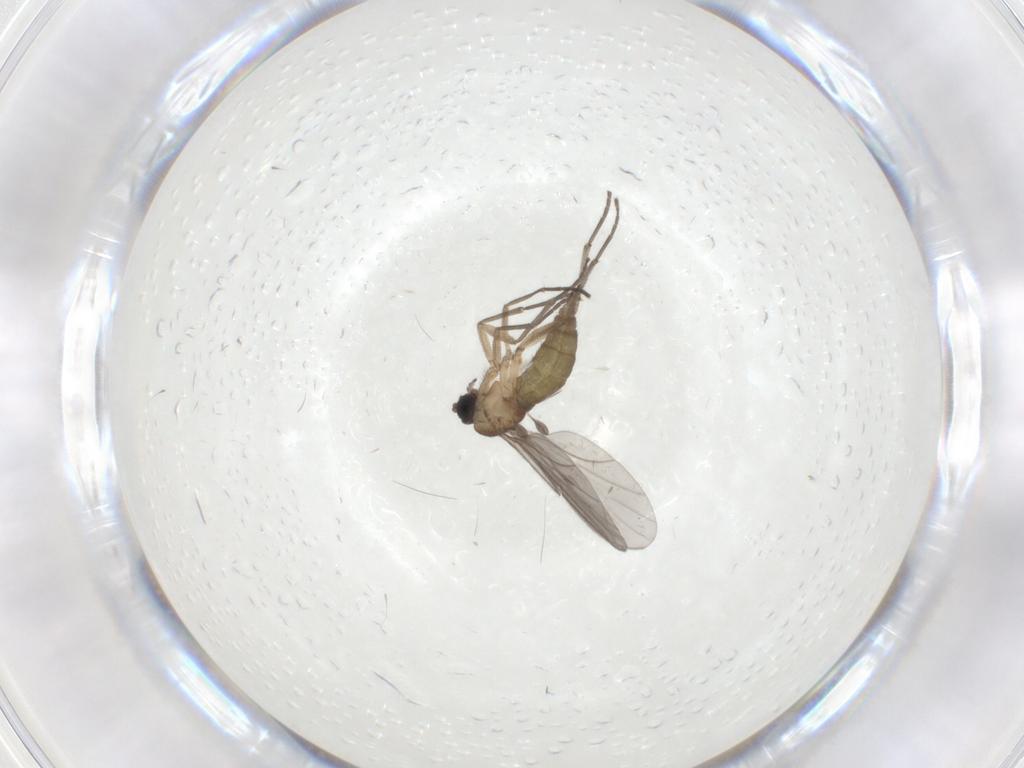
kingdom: Animalia
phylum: Arthropoda
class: Insecta
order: Diptera
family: Sciaridae
